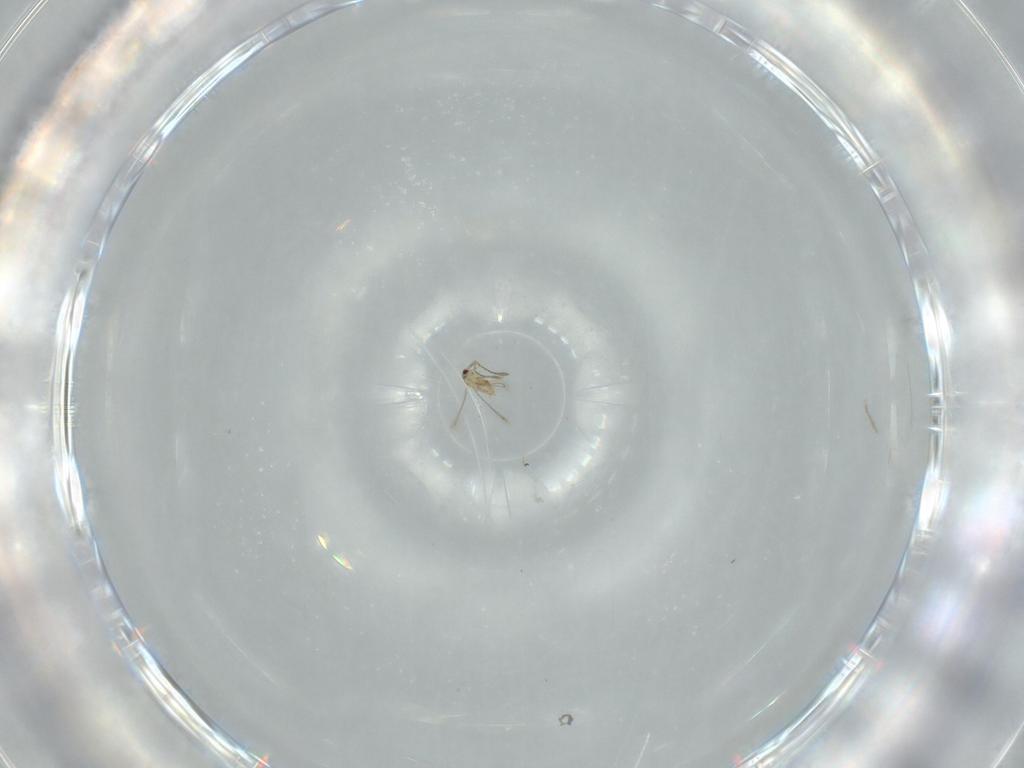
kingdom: Animalia
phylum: Arthropoda
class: Insecta
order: Hymenoptera
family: Mymaridae
